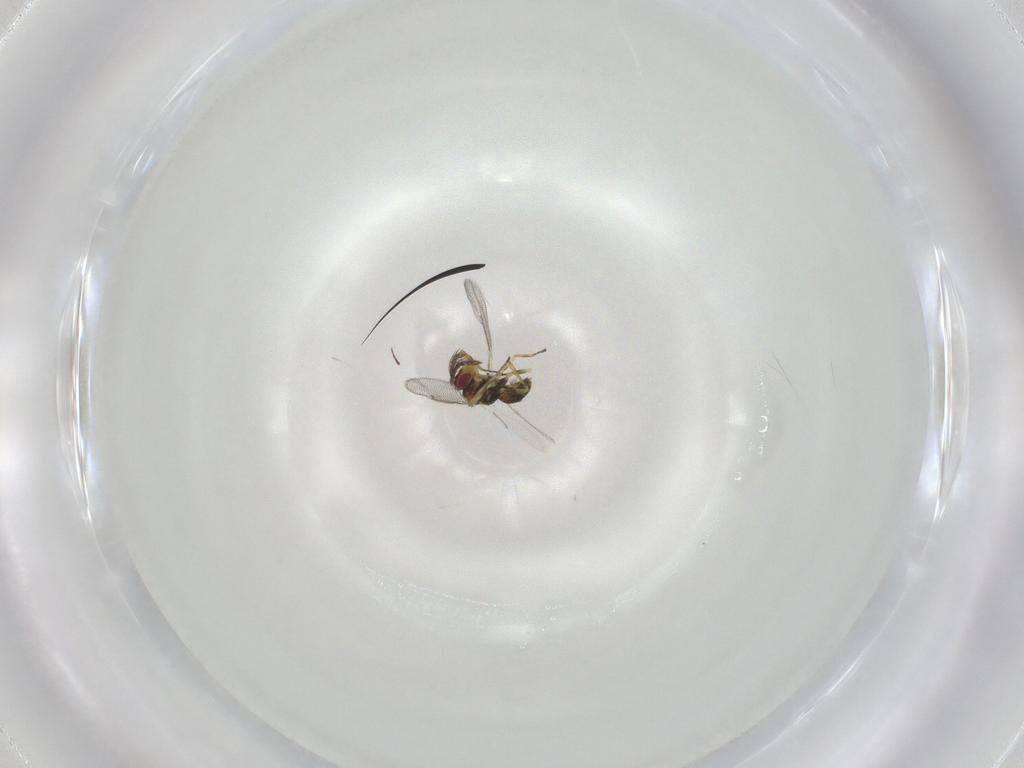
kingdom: Animalia
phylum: Arthropoda
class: Insecta
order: Hymenoptera
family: Eulophidae
